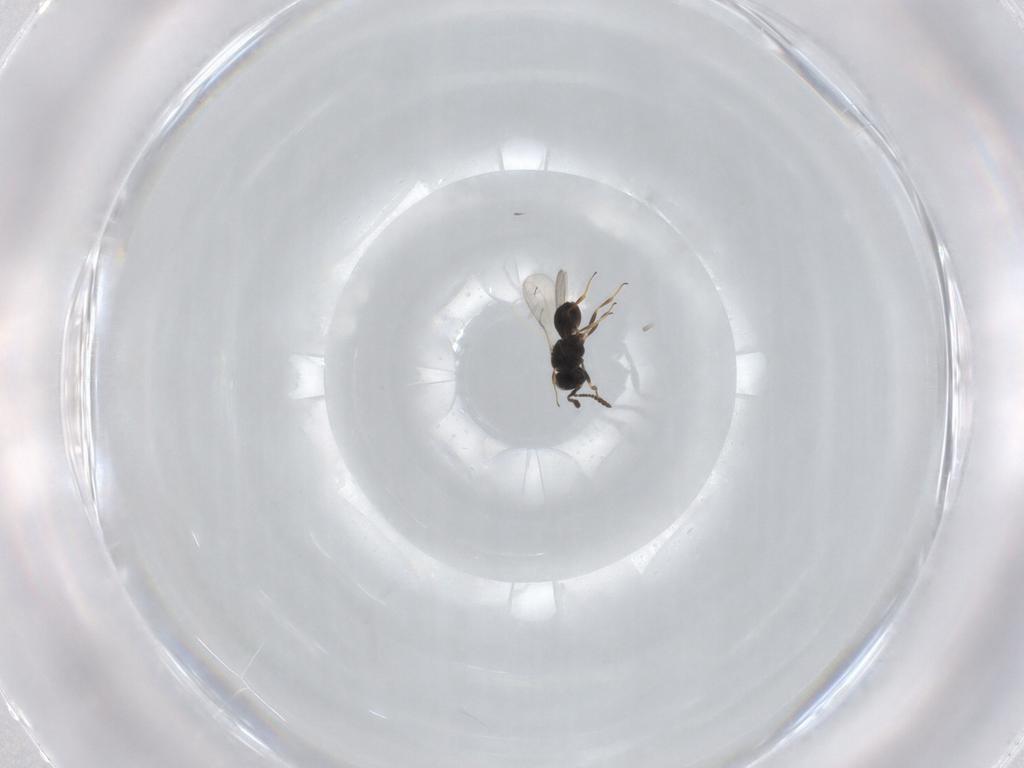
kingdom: Animalia
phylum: Arthropoda
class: Insecta
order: Hymenoptera
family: Scelionidae
